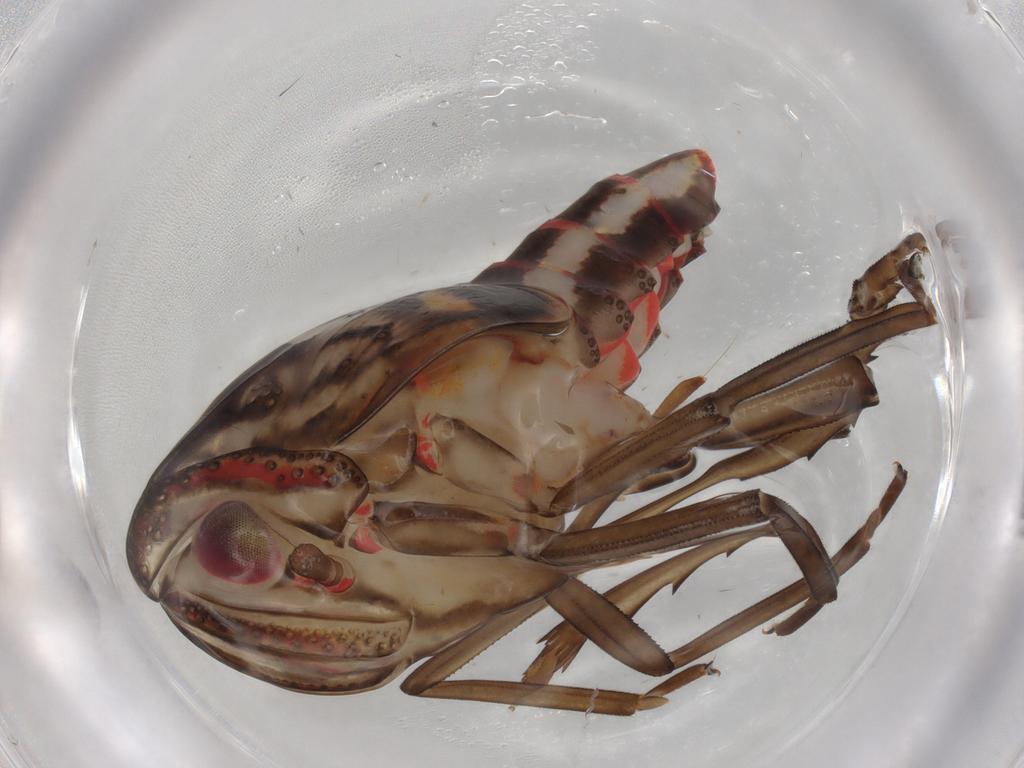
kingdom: Animalia
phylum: Arthropoda
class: Insecta
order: Hemiptera
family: Nogodinidae
